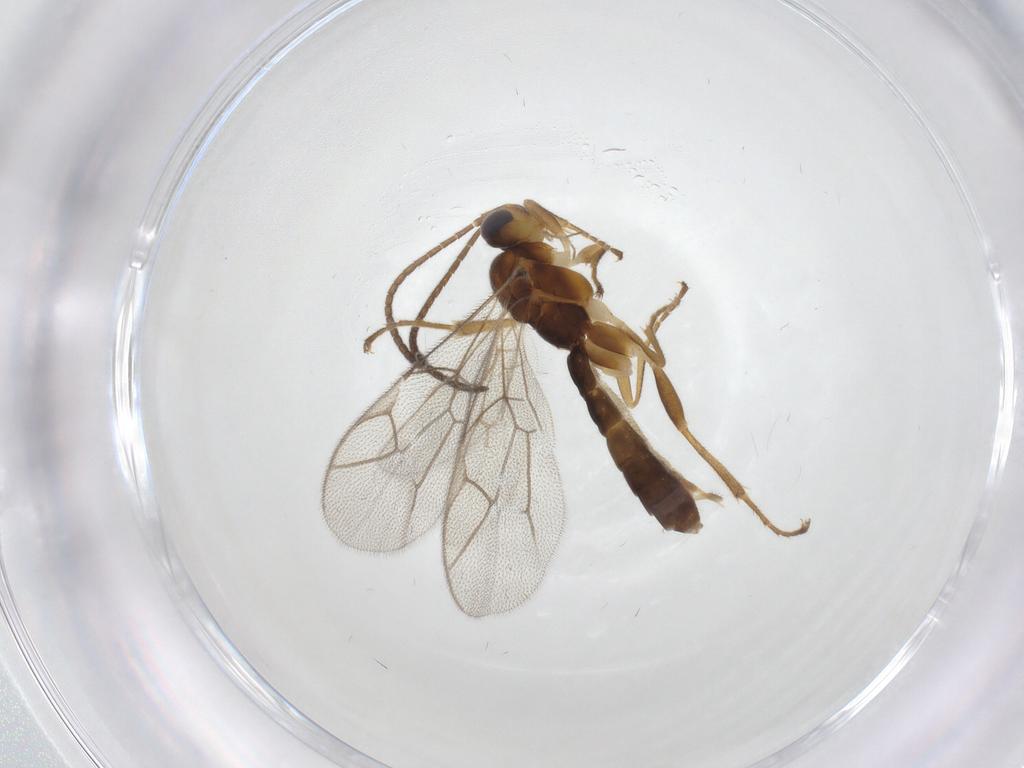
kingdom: Animalia
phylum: Arthropoda
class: Insecta
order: Hymenoptera
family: Ichneumonidae
